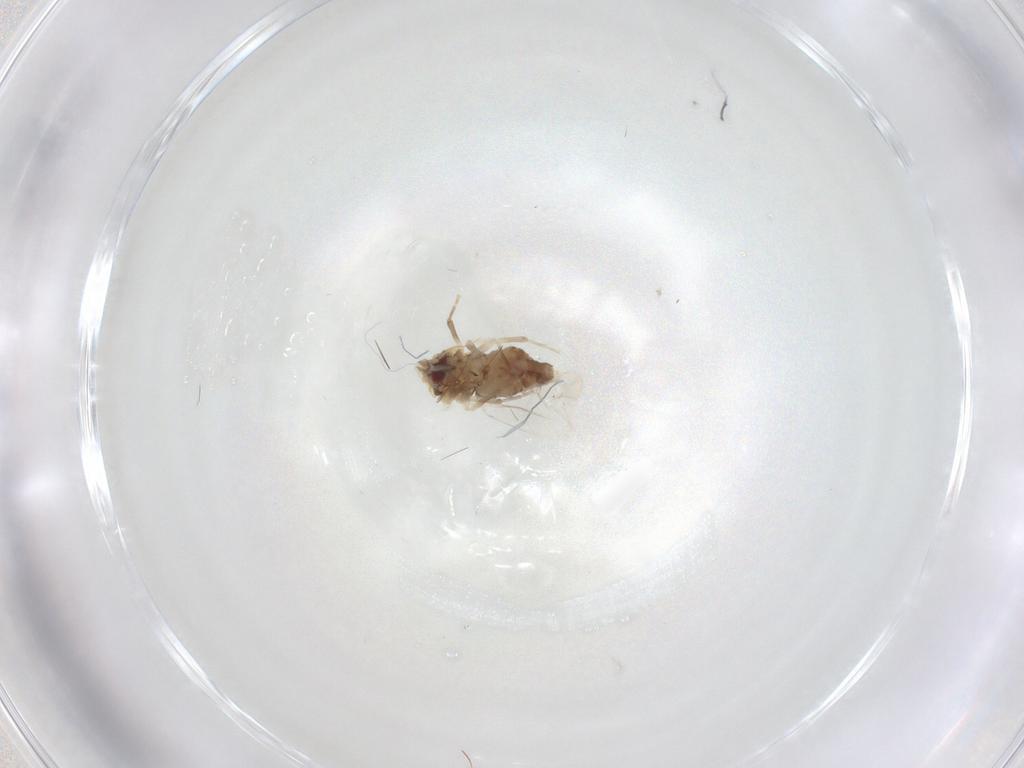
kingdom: Animalia
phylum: Arthropoda
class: Insecta
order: Hemiptera
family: Aleyrodidae
